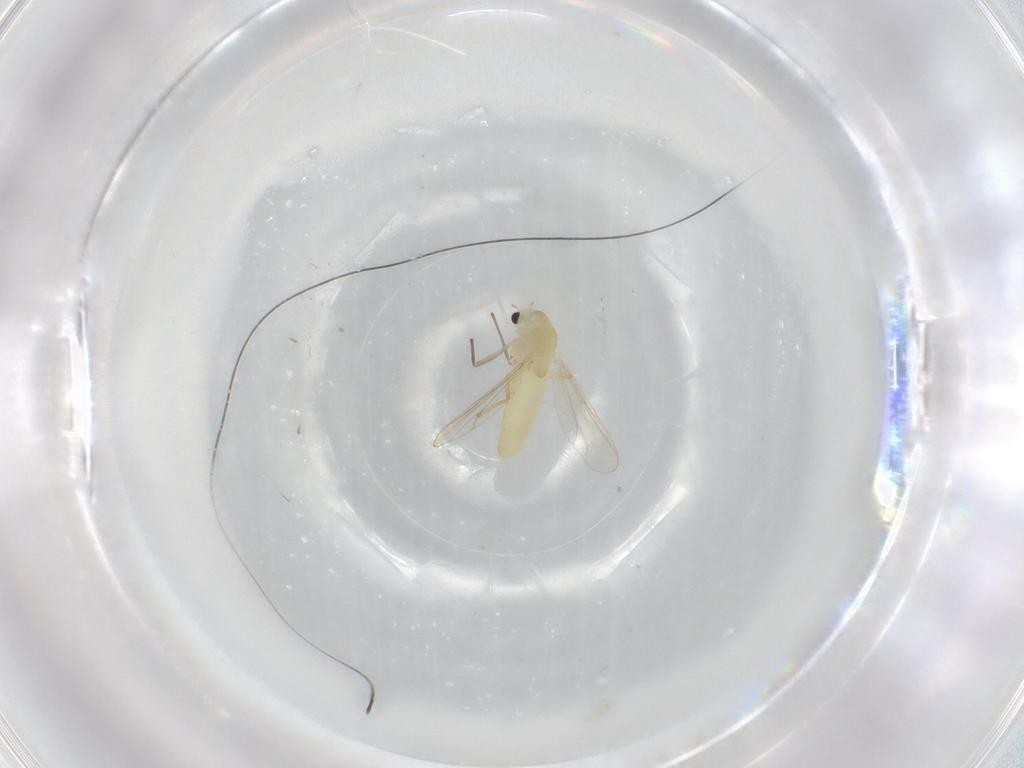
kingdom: Animalia
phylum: Arthropoda
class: Insecta
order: Diptera
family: Chironomidae
